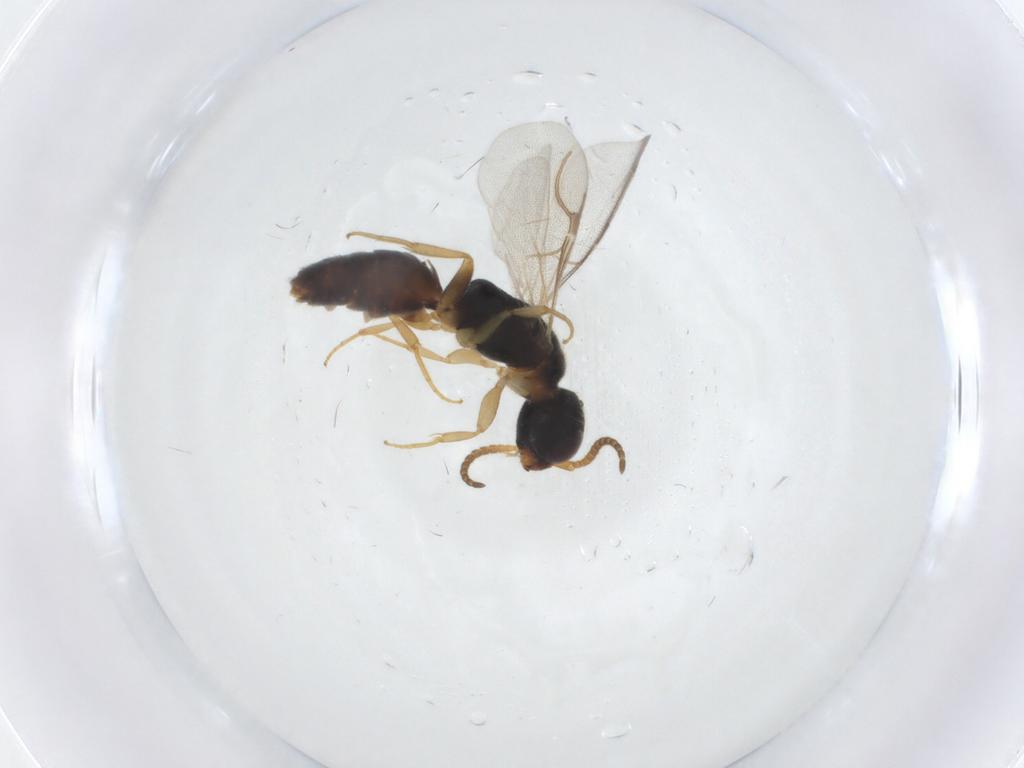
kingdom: Animalia
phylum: Arthropoda
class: Insecta
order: Hymenoptera
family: Bethylidae
